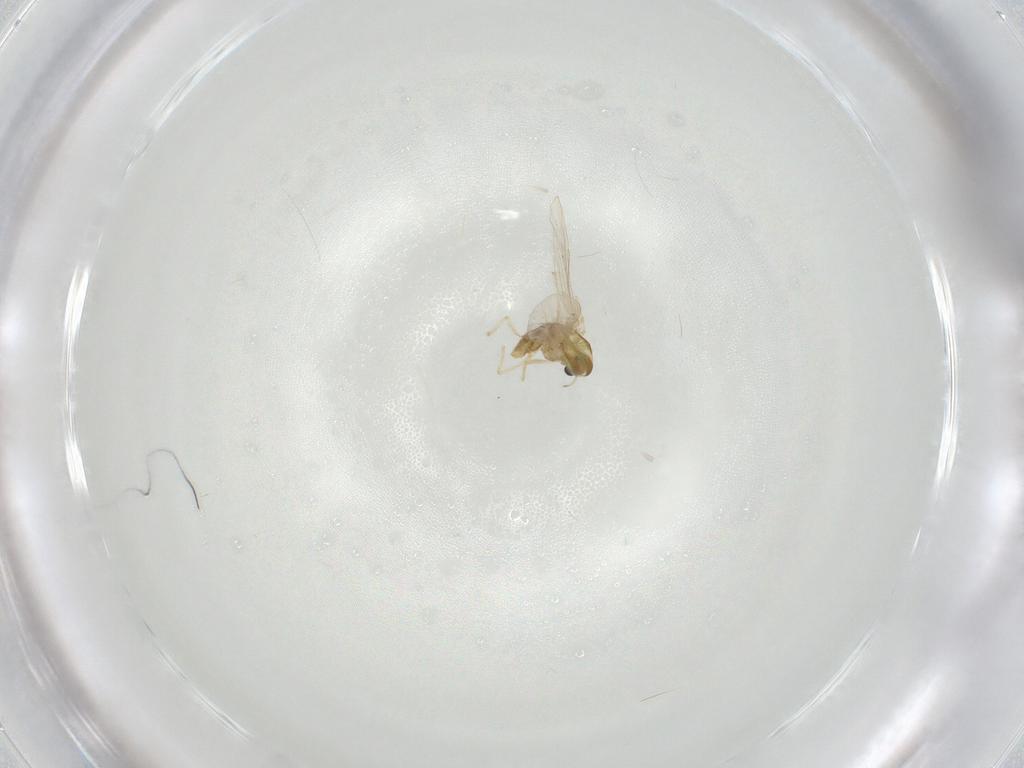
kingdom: Animalia
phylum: Arthropoda
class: Insecta
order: Diptera
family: Chironomidae
